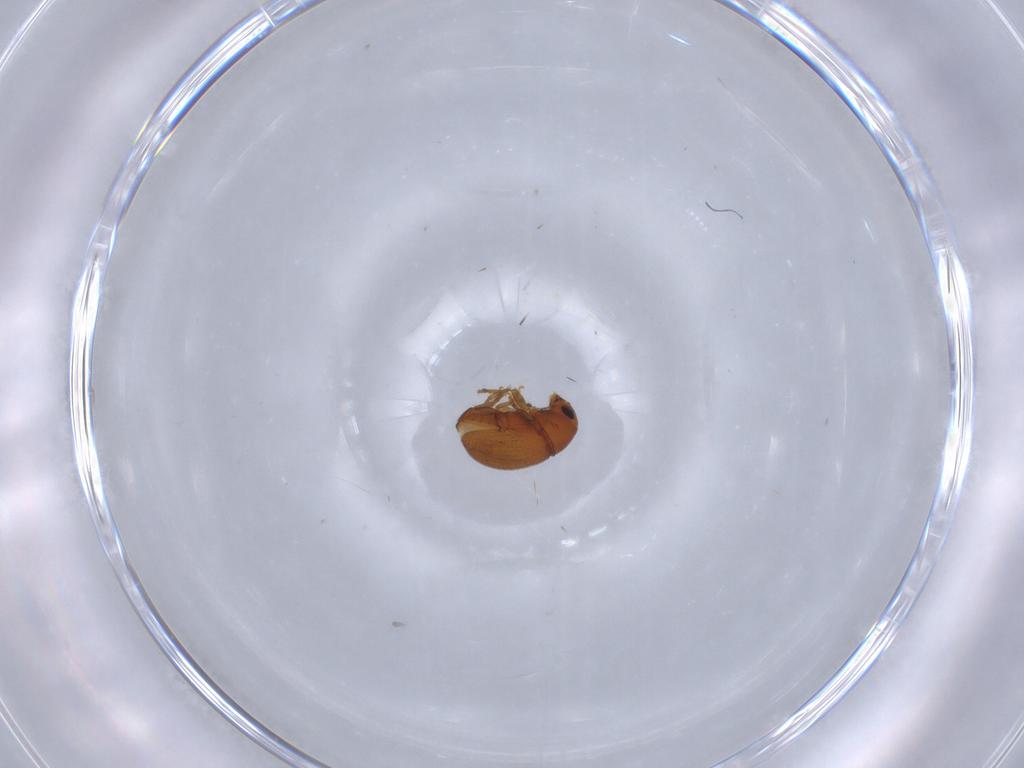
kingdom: Animalia
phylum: Arthropoda
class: Insecta
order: Coleoptera
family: Anthribidae
